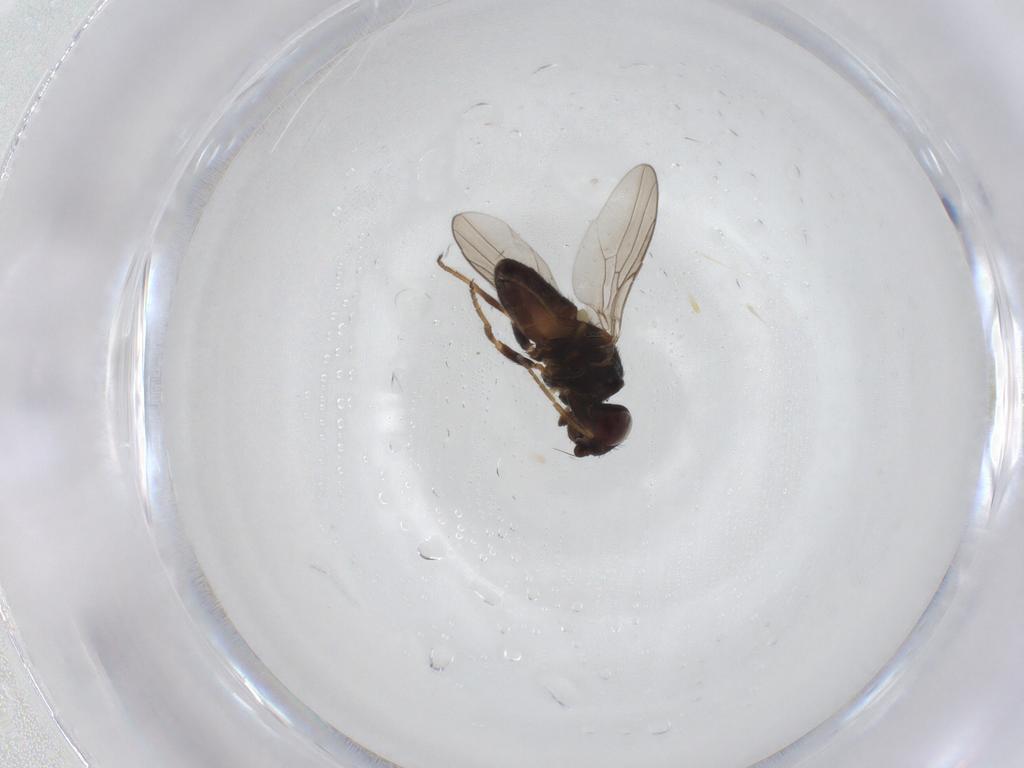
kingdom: Animalia
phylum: Arthropoda
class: Insecta
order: Diptera
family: Chloropidae
